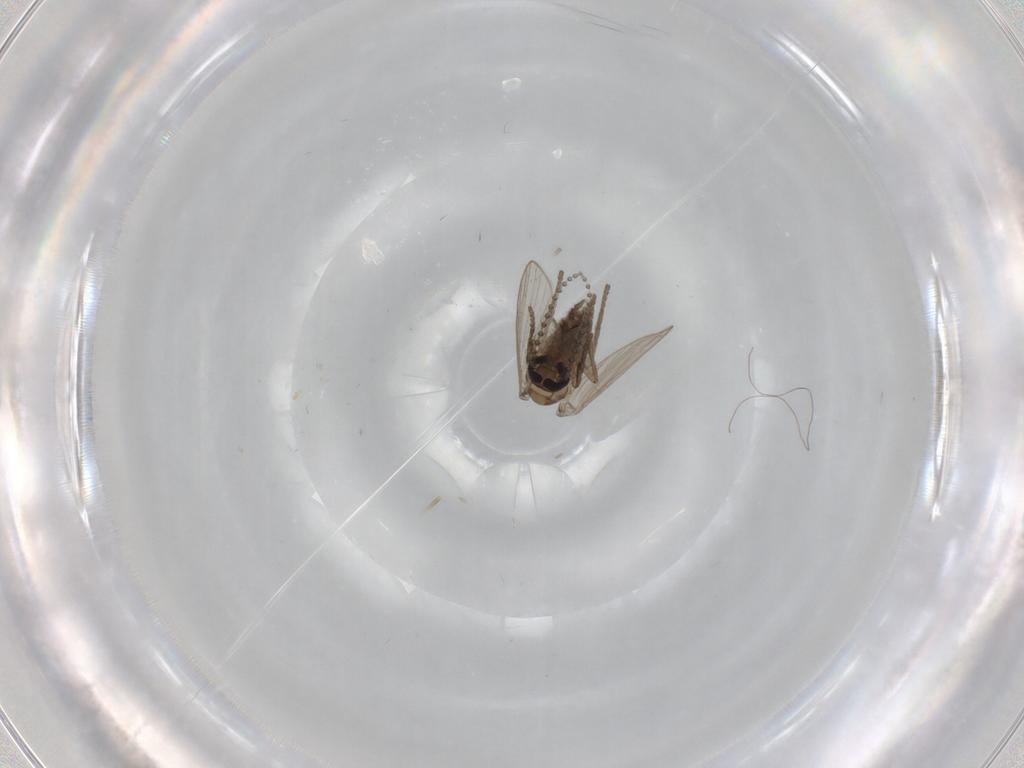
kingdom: Animalia
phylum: Arthropoda
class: Insecta
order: Diptera
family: Psychodidae
